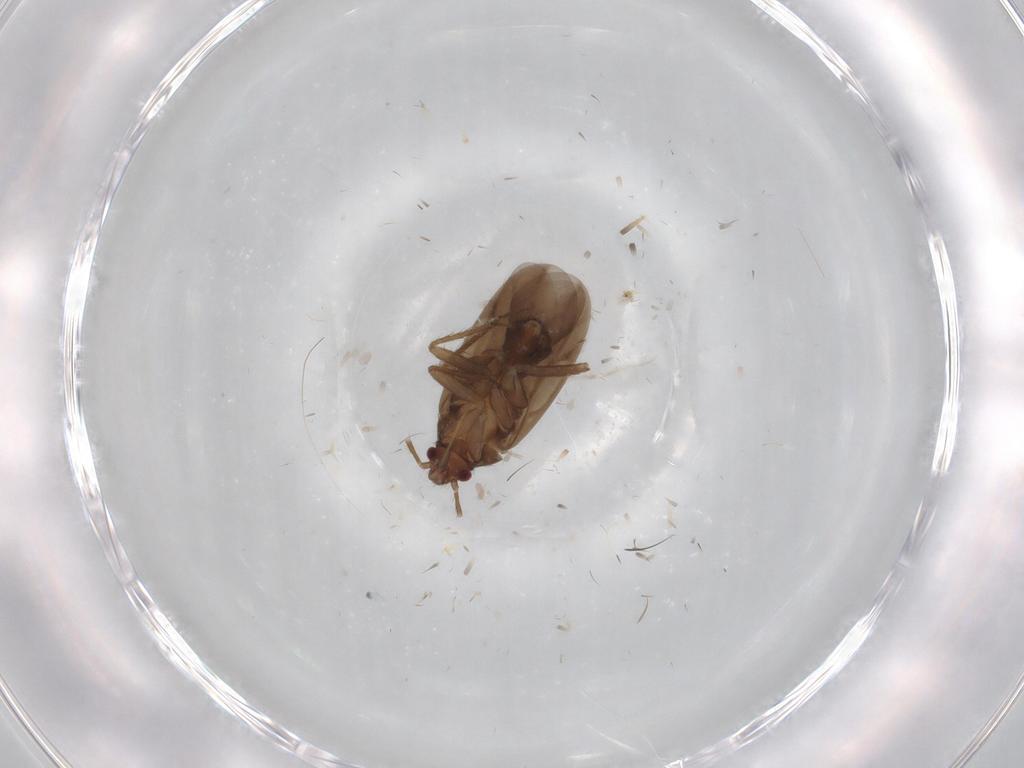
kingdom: Animalia
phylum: Arthropoda
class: Insecta
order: Hemiptera
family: Ceratocombidae
